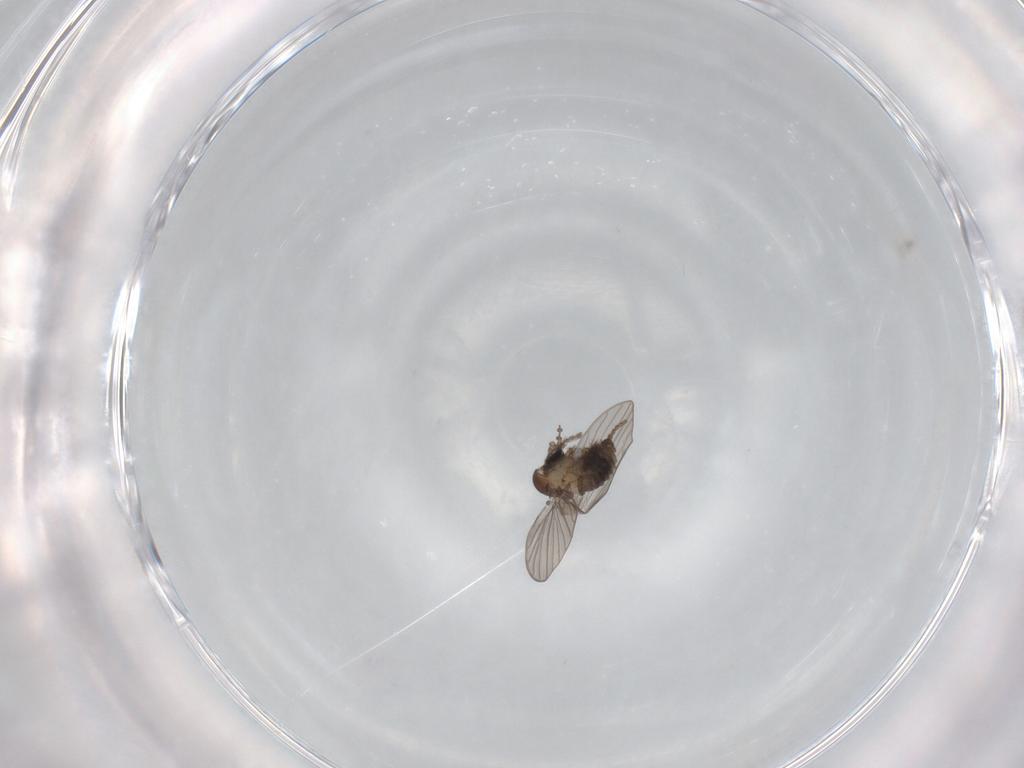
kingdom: Animalia
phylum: Arthropoda
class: Insecta
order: Diptera
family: Psychodidae
